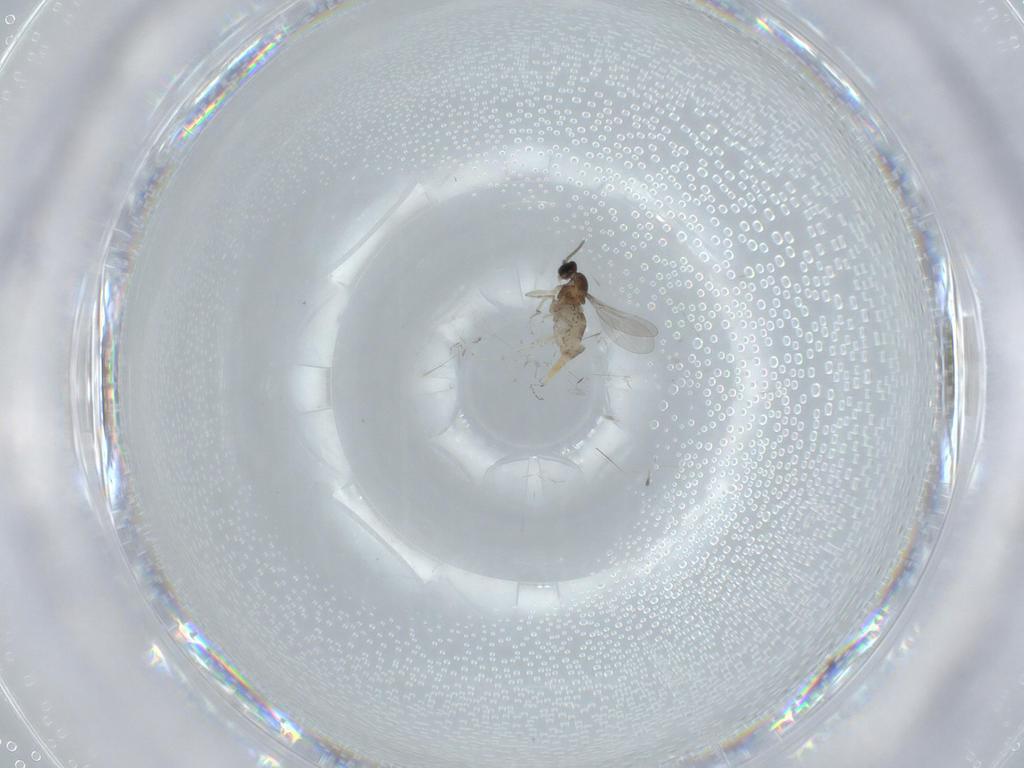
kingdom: Animalia
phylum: Arthropoda
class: Insecta
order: Diptera
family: Cecidomyiidae
